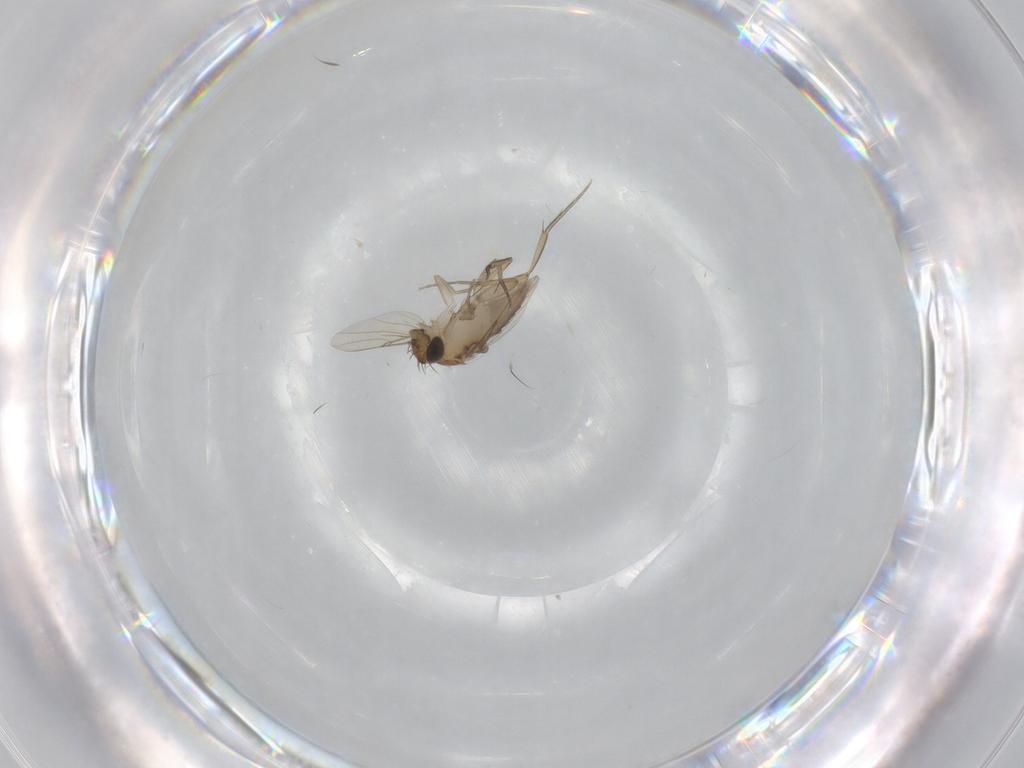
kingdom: Animalia
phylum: Arthropoda
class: Insecta
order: Diptera
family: Phoridae
